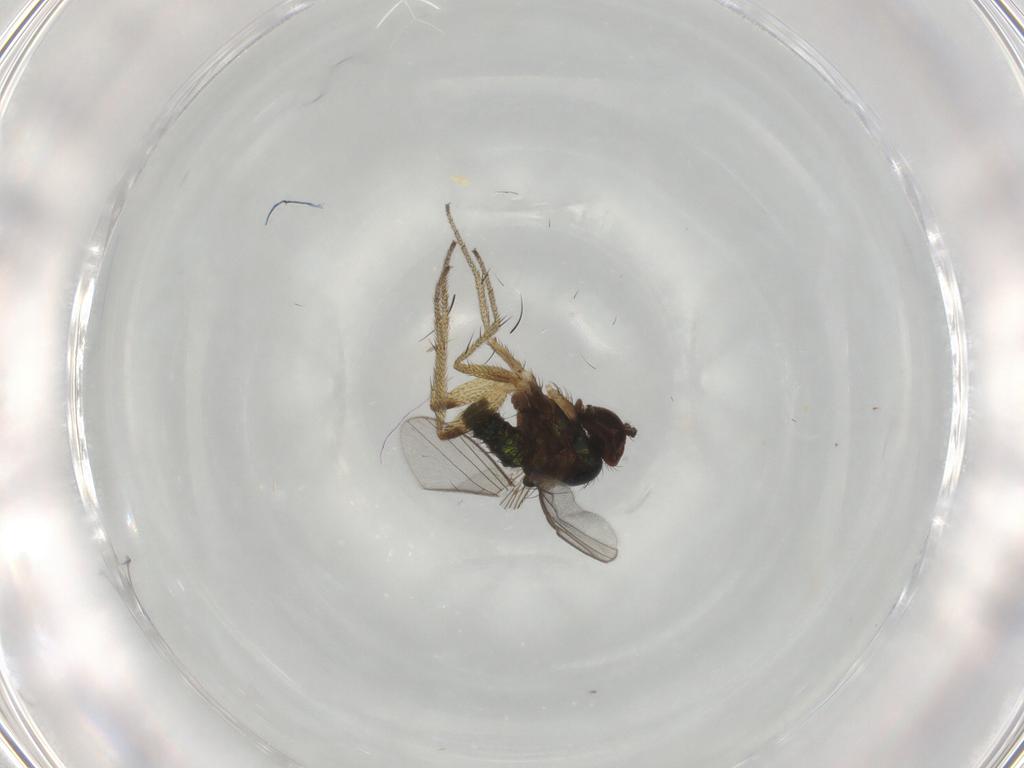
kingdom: Animalia
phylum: Arthropoda
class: Insecta
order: Diptera
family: Dolichopodidae
